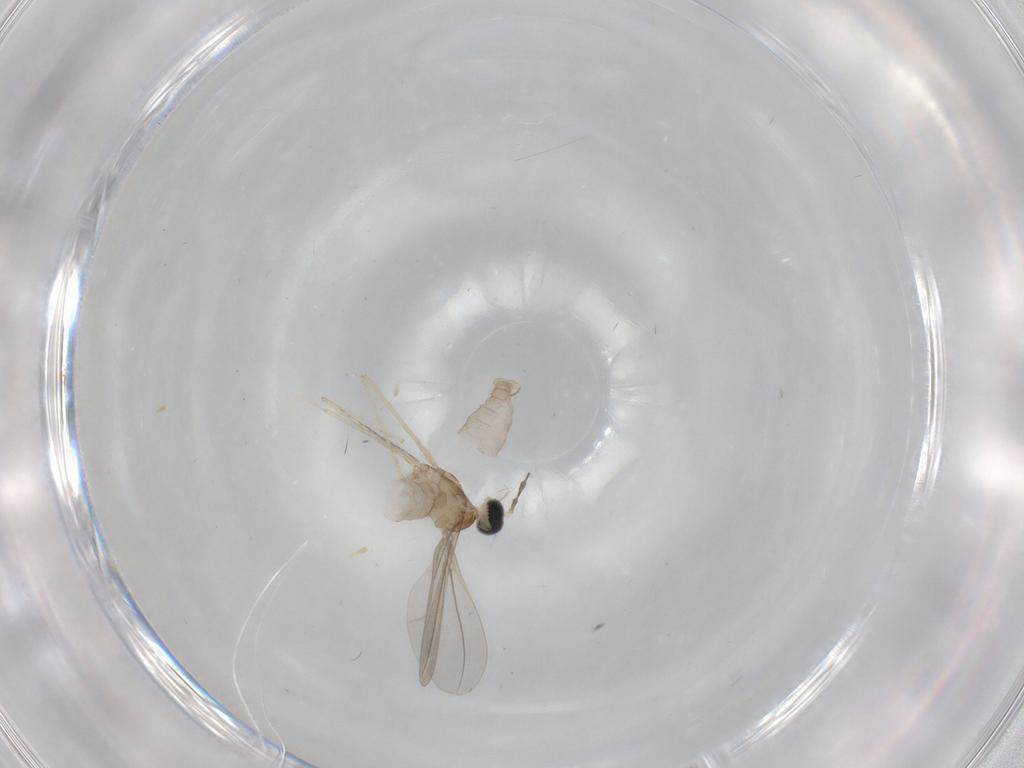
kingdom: Animalia
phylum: Arthropoda
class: Insecta
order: Diptera
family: Cecidomyiidae
